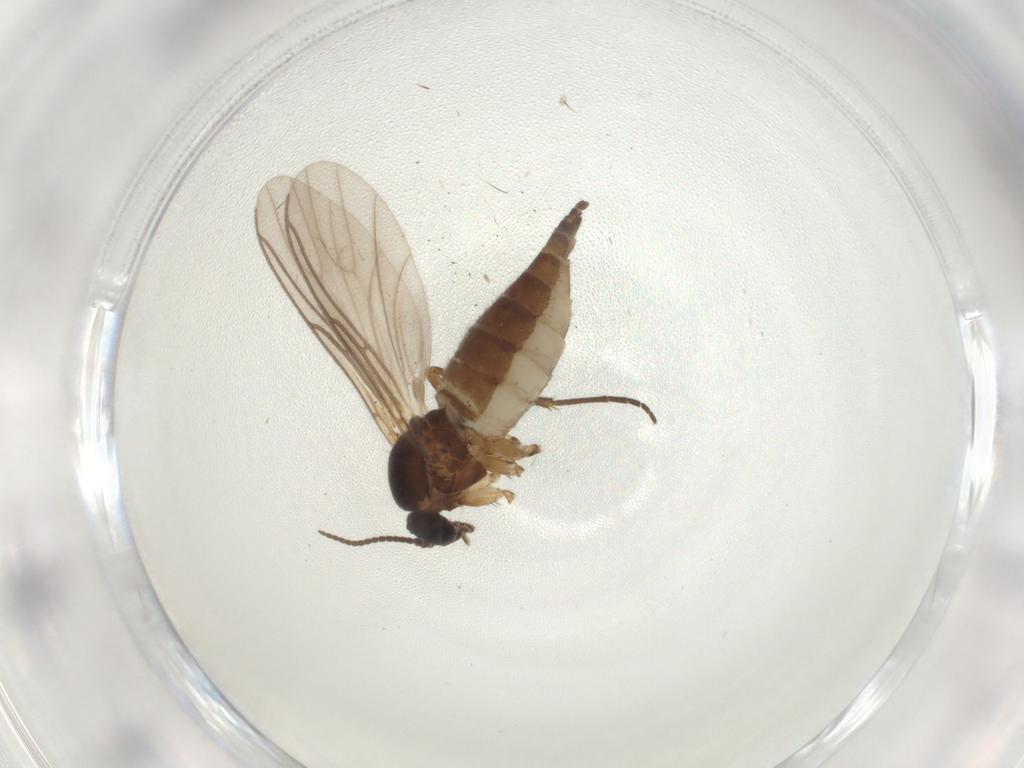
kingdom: Animalia
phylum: Arthropoda
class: Insecta
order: Diptera
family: Sciaridae
